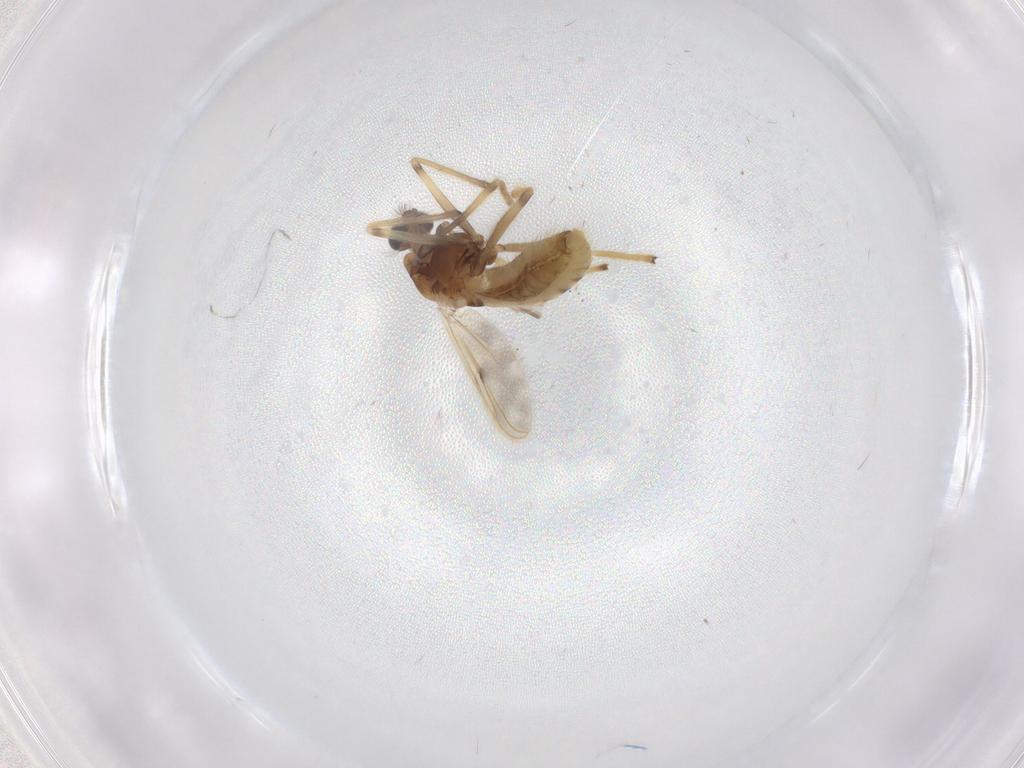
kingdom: Animalia
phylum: Arthropoda
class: Insecta
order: Diptera
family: Chironomidae
